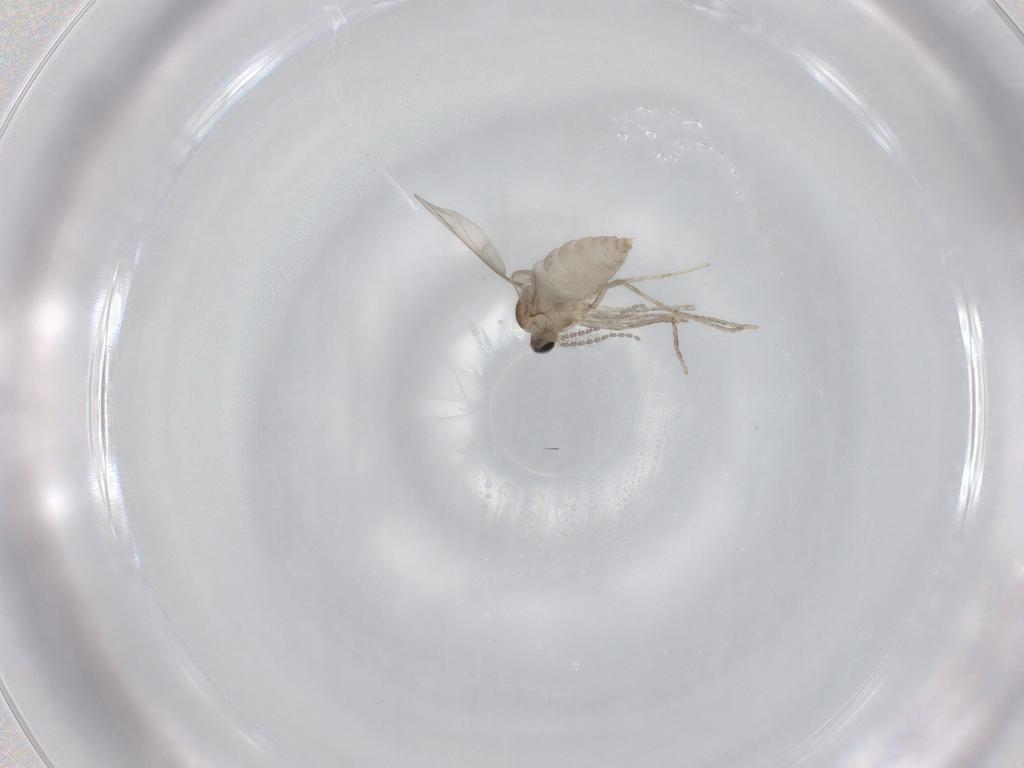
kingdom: Animalia
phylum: Arthropoda
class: Insecta
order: Diptera
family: Cecidomyiidae
